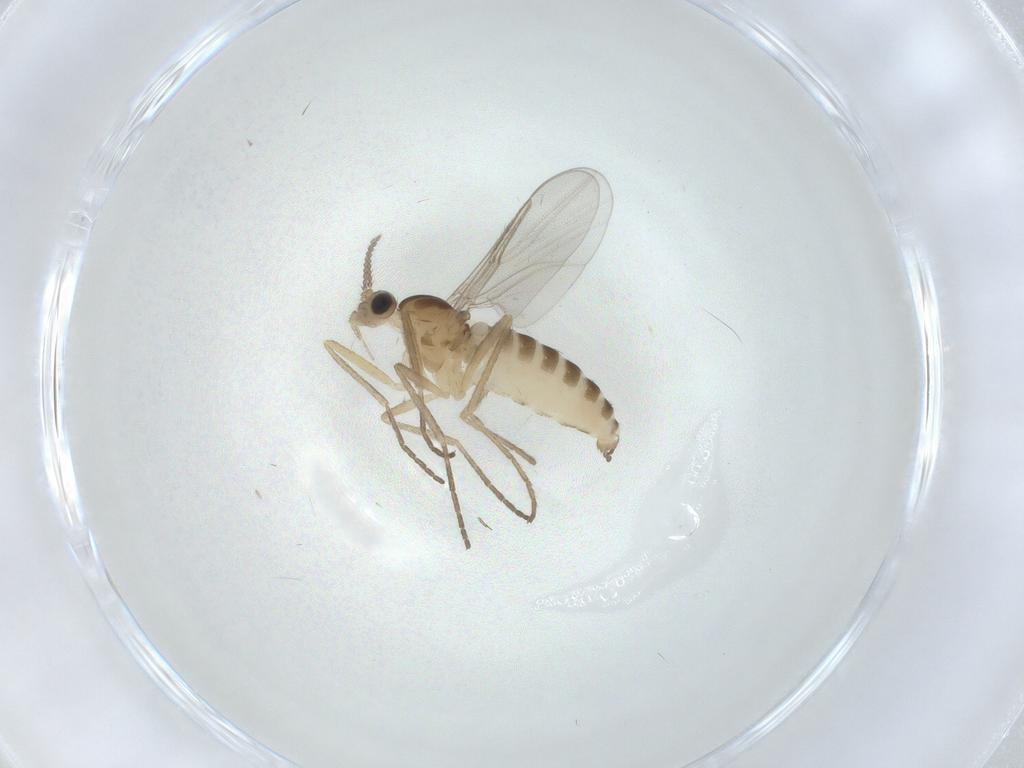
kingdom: Animalia
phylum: Arthropoda
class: Insecta
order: Diptera
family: Cecidomyiidae
